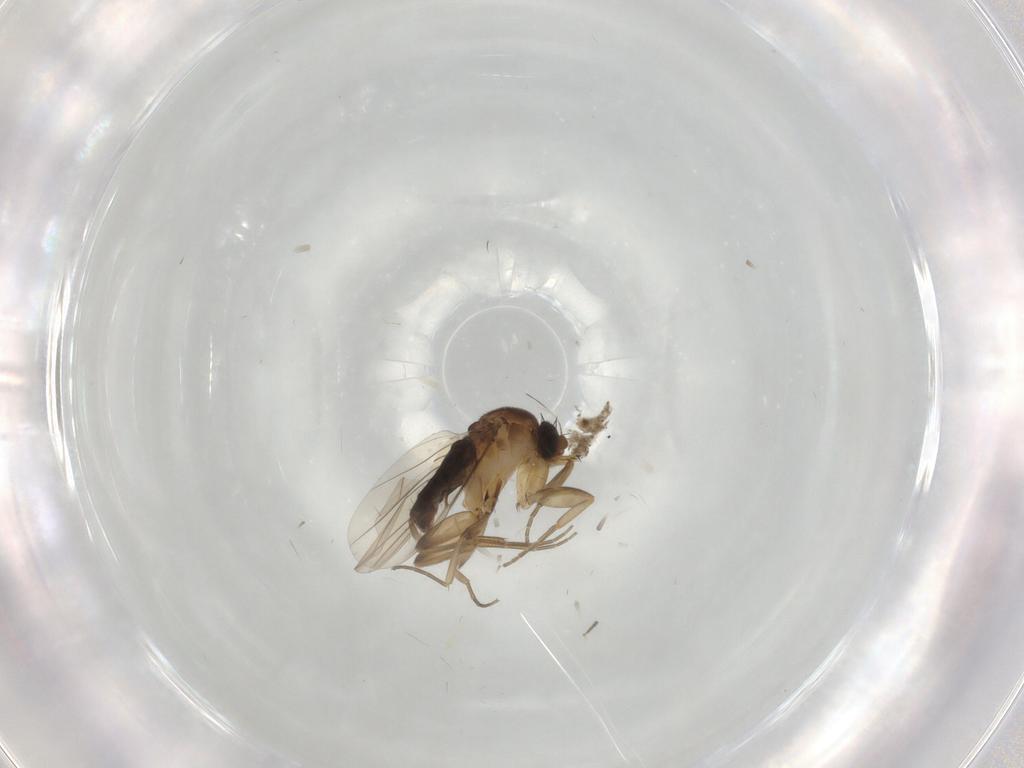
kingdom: Animalia
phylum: Arthropoda
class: Insecta
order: Diptera
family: Phoridae
